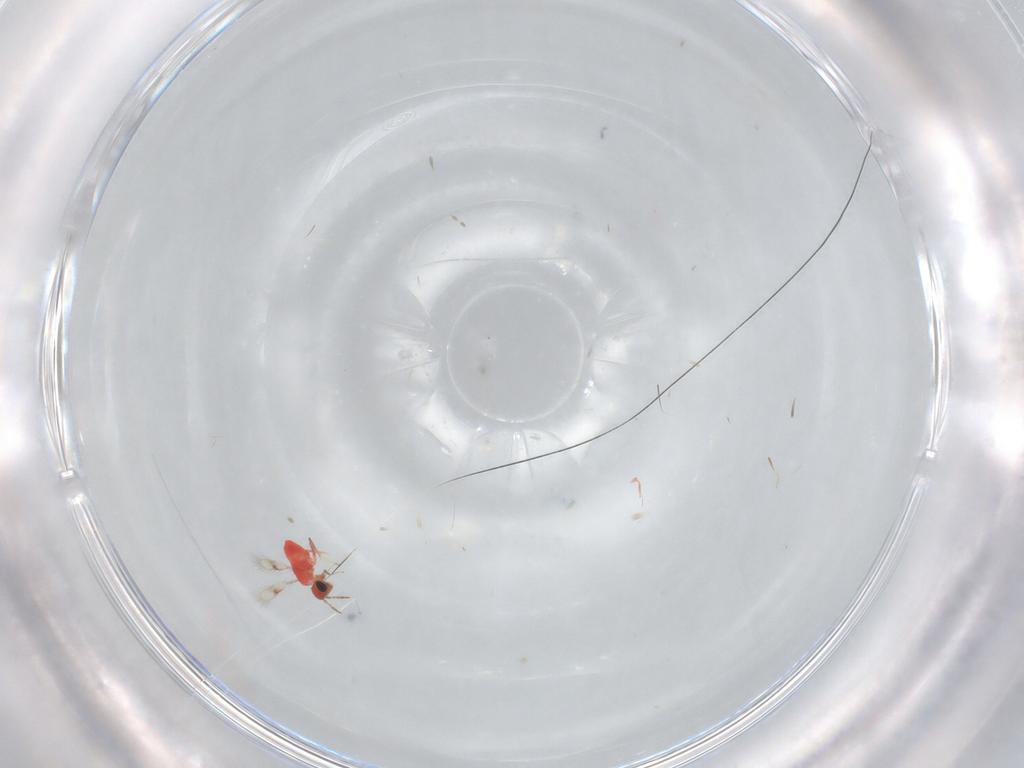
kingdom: Animalia
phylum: Arthropoda
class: Insecta
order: Hymenoptera
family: Trichogrammatidae
